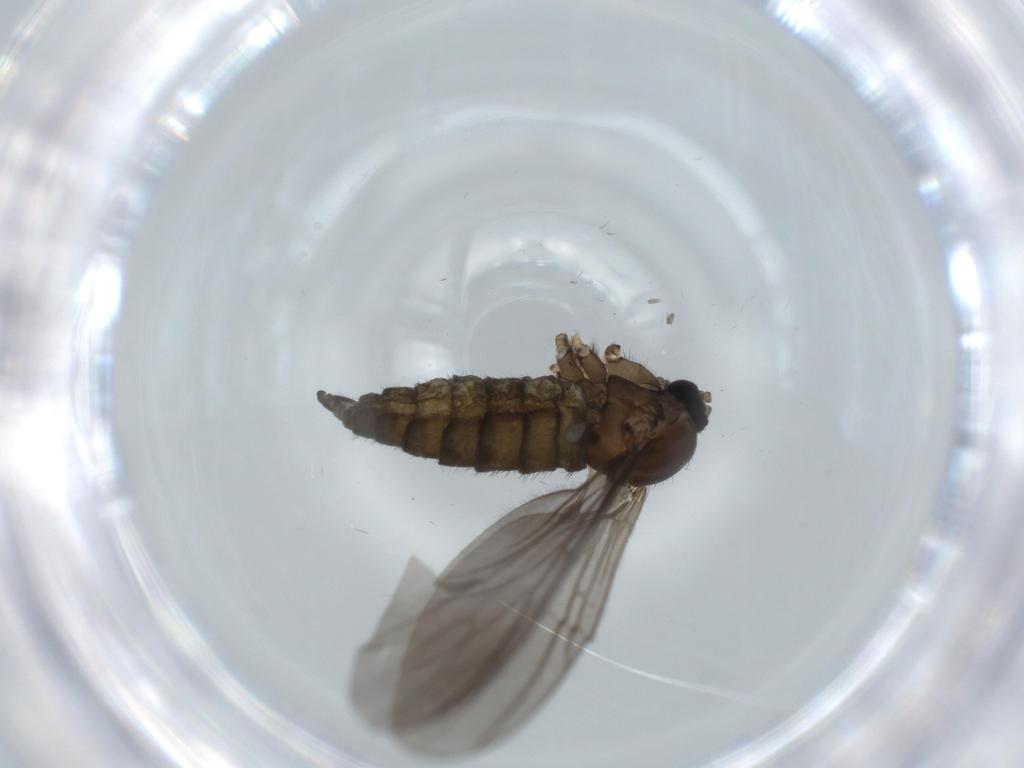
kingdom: Animalia
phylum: Arthropoda
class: Insecta
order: Diptera
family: Sciaridae
